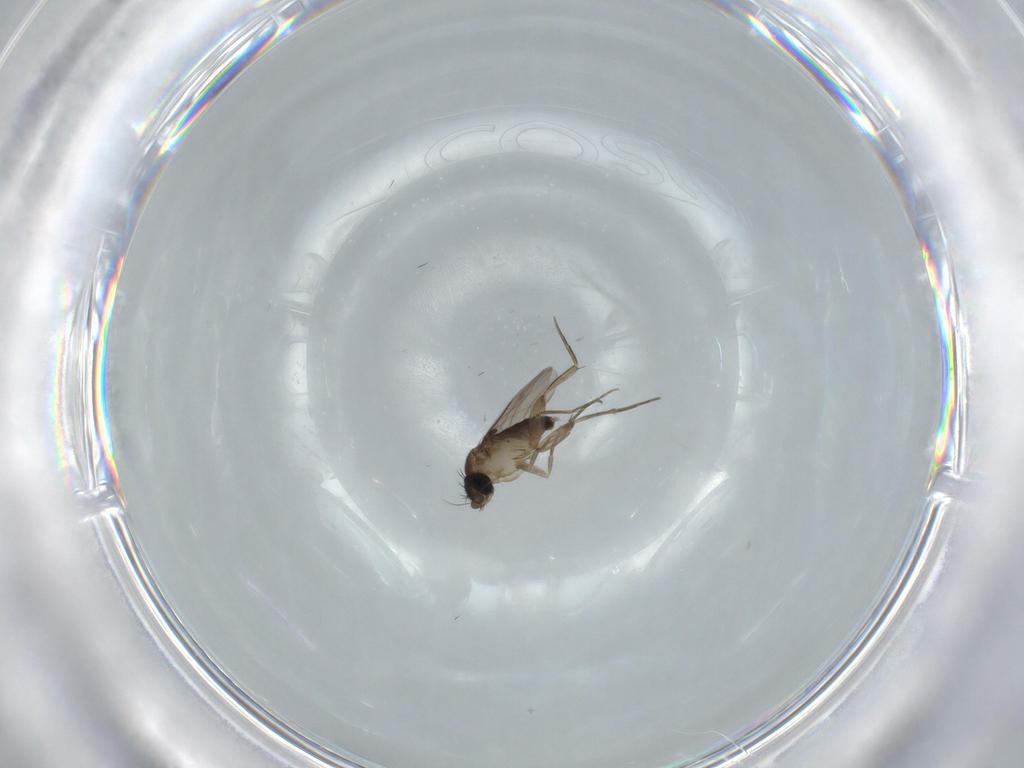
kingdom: Animalia
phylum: Arthropoda
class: Insecta
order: Diptera
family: Phoridae
